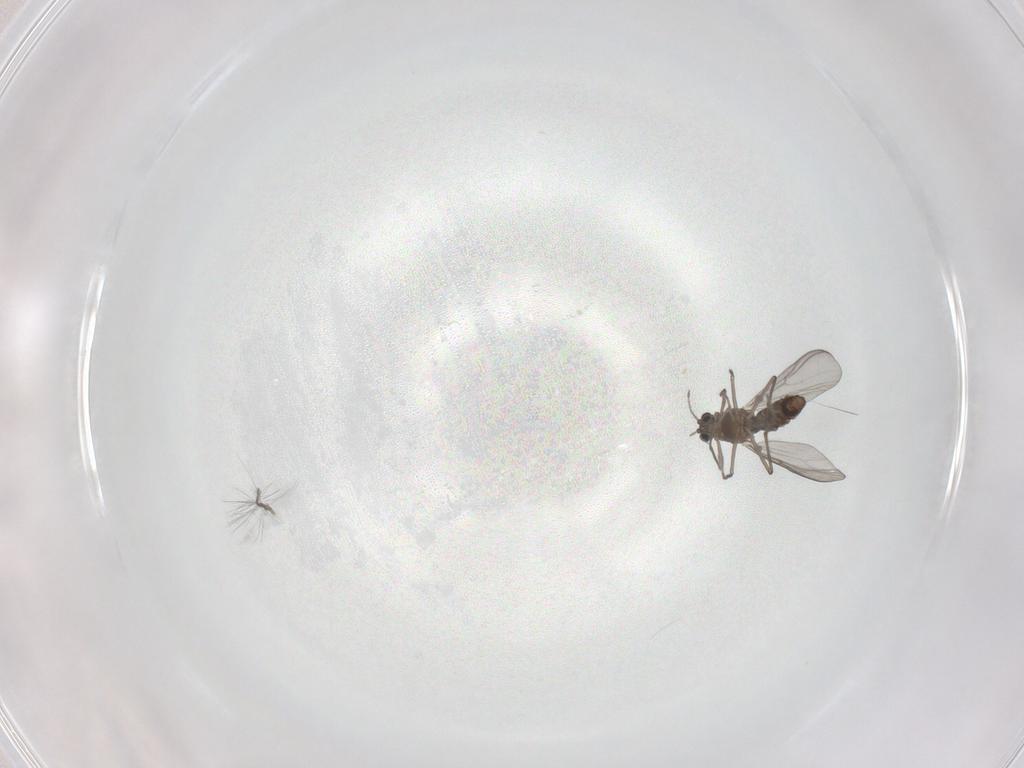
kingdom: Animalia
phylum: Arthropoda
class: Insecta
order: Diptera
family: Chironomidae
